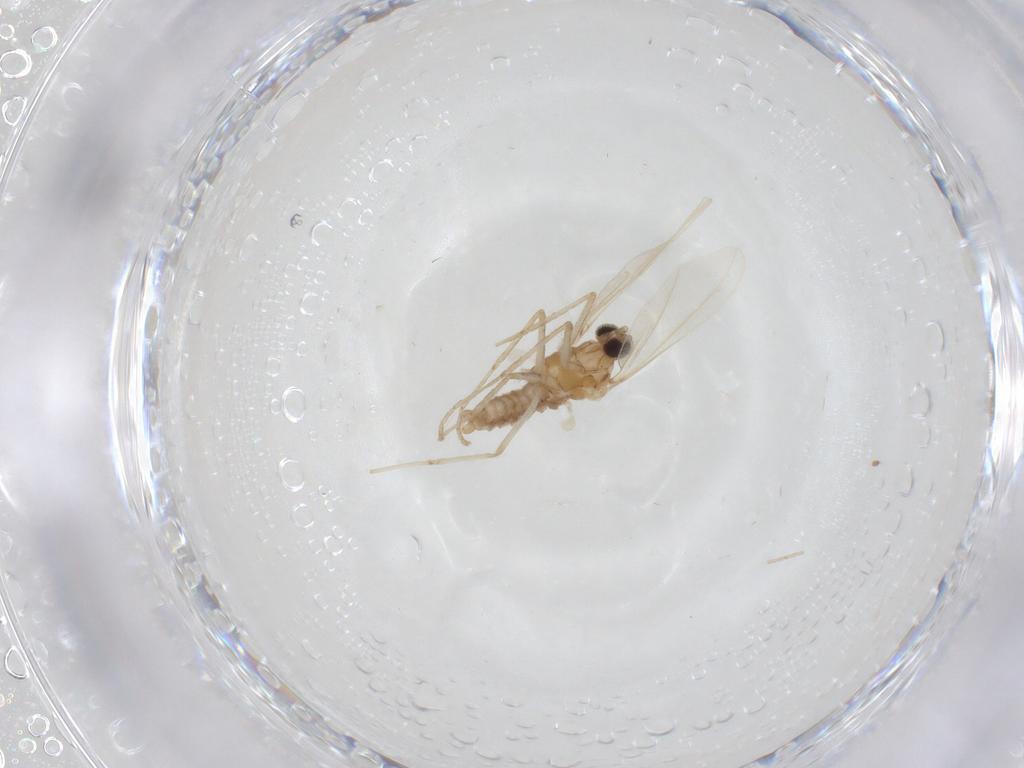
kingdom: Animalia
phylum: Arthropoda
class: Insecta
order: Diptera
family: Cecidomyiidae
